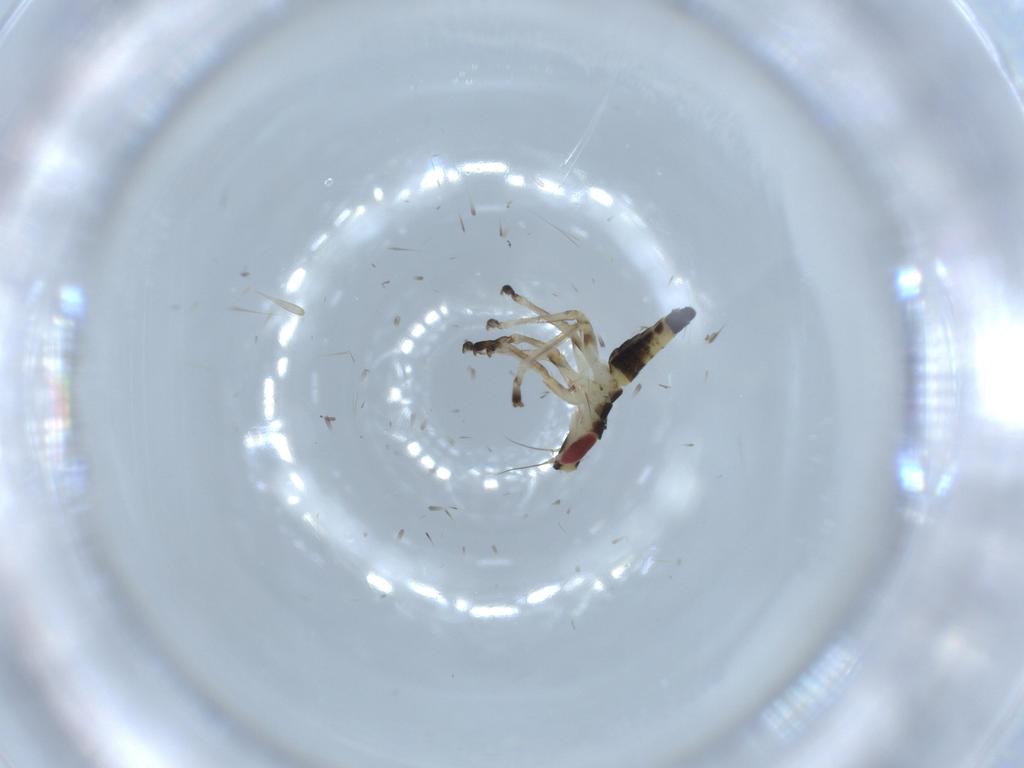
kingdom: Animalia
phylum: Arthropoda
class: Insecta
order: Hemiptera
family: Cicadellidae
